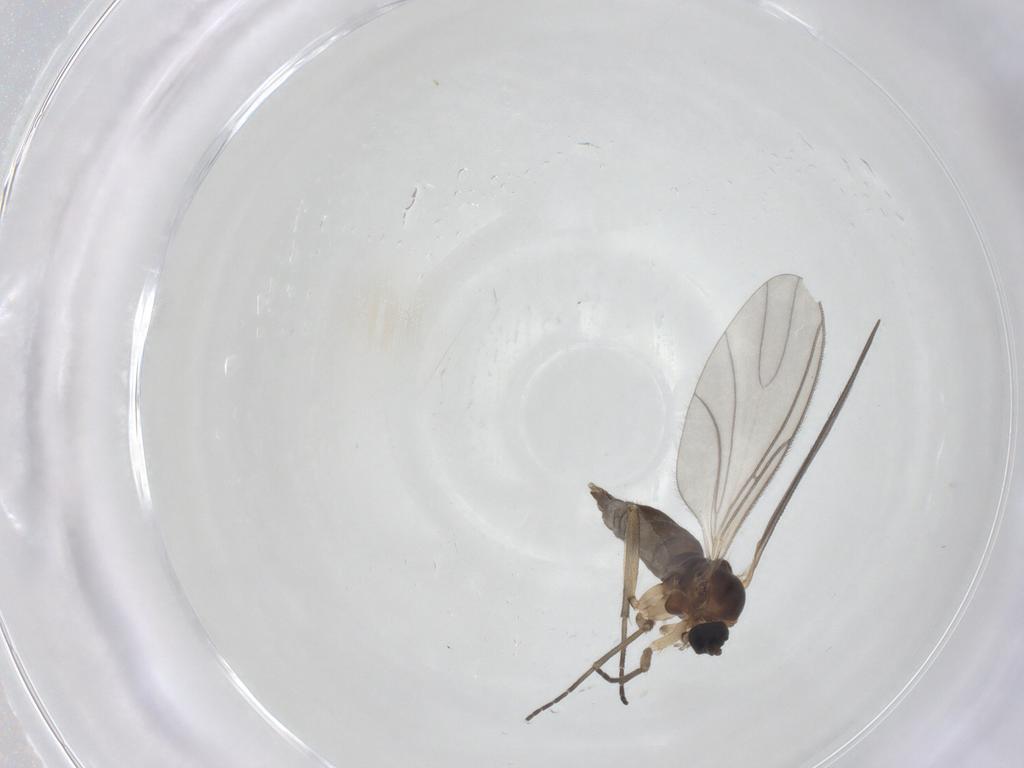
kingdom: Animalia
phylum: Arthropoda
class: Insecta
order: Diptera
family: Sciaridae
